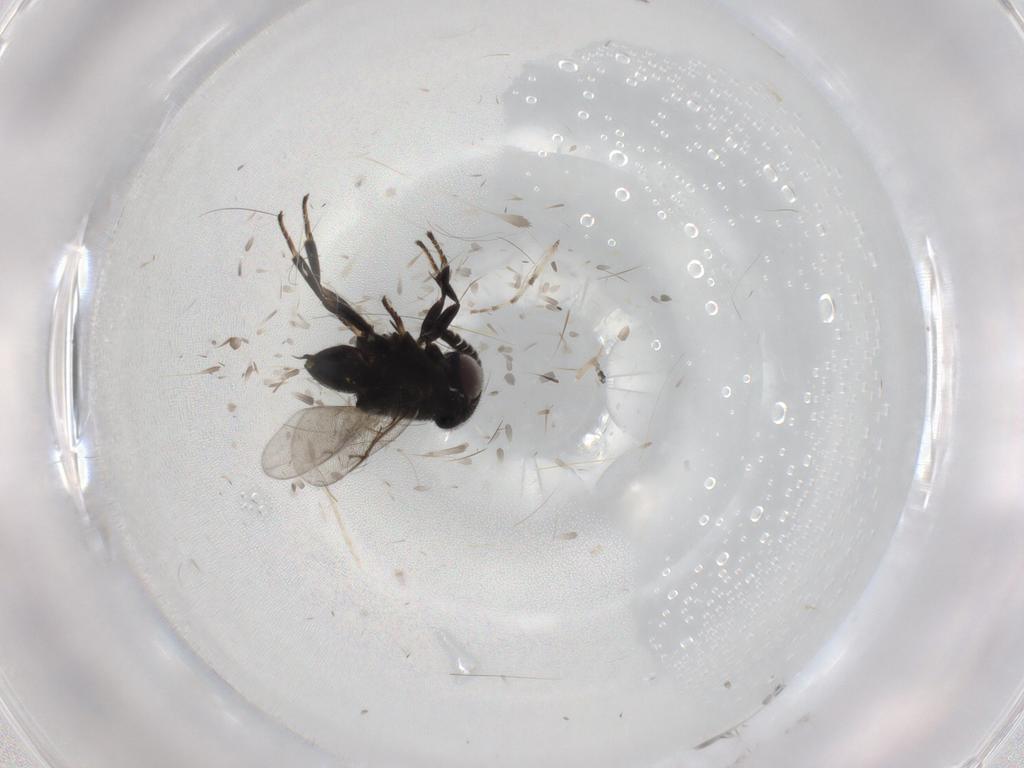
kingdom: Animalia
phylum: Arthropoda
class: Insecta
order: Hymenoptera
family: Encyrtidae
